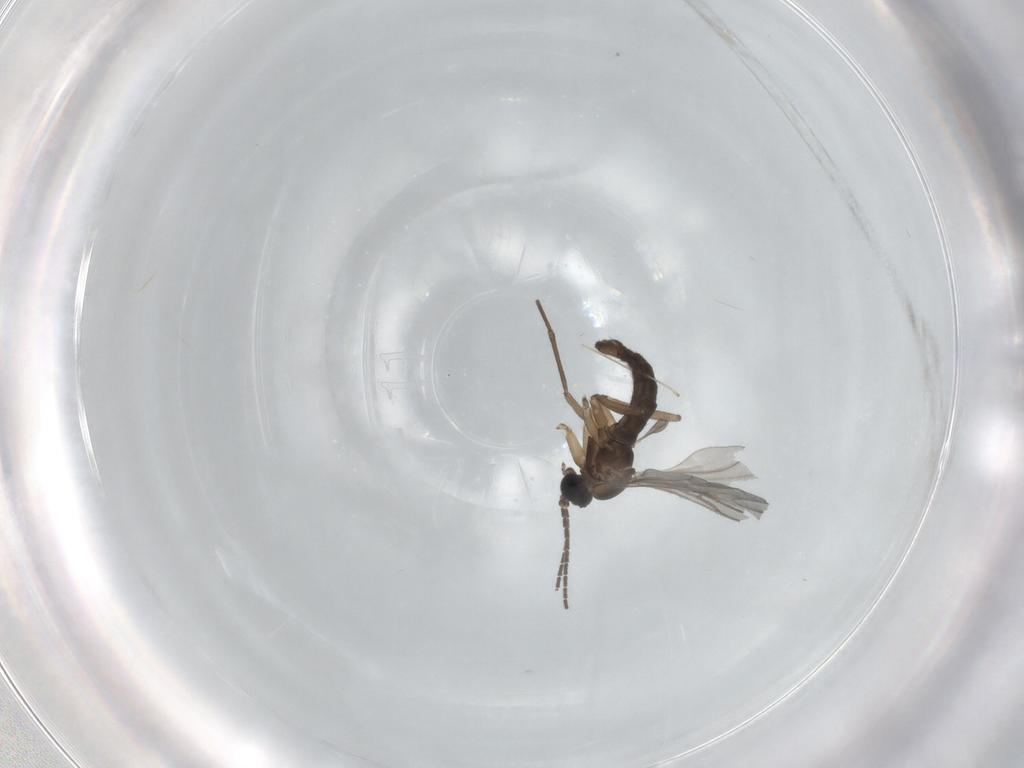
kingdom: Animalia
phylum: Arthropoda
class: Insecta
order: Diptera
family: Sciaridae
